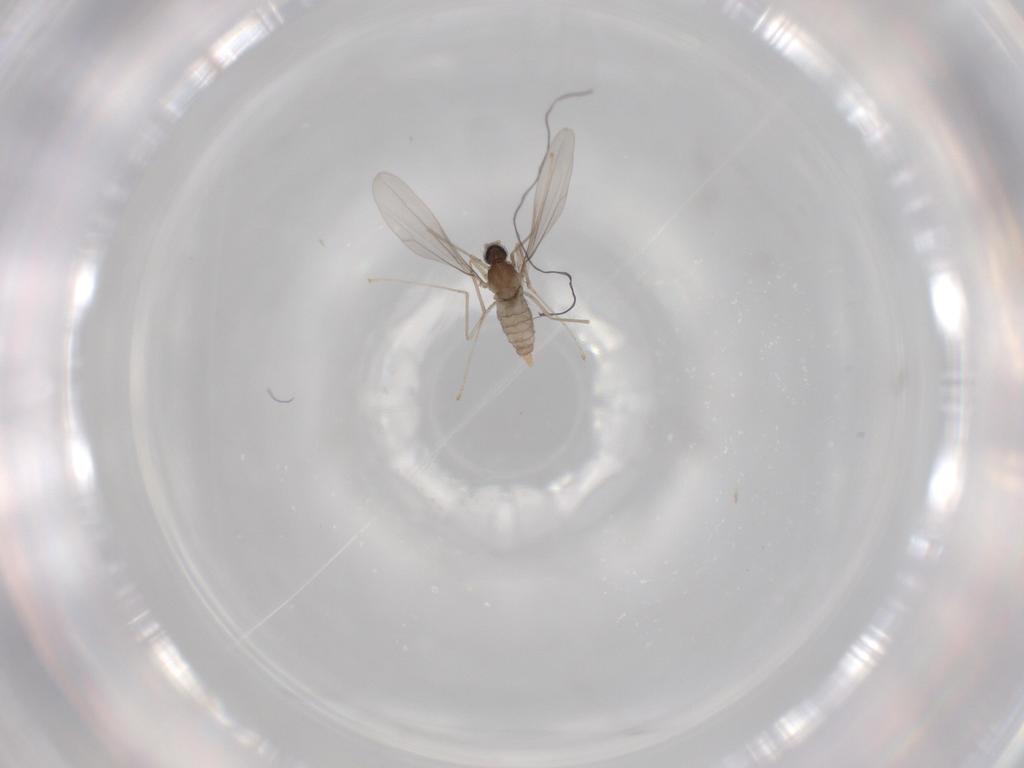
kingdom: Animalia
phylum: Arthropoda
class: Insecta
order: Diptera
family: Cecidomyiidae
